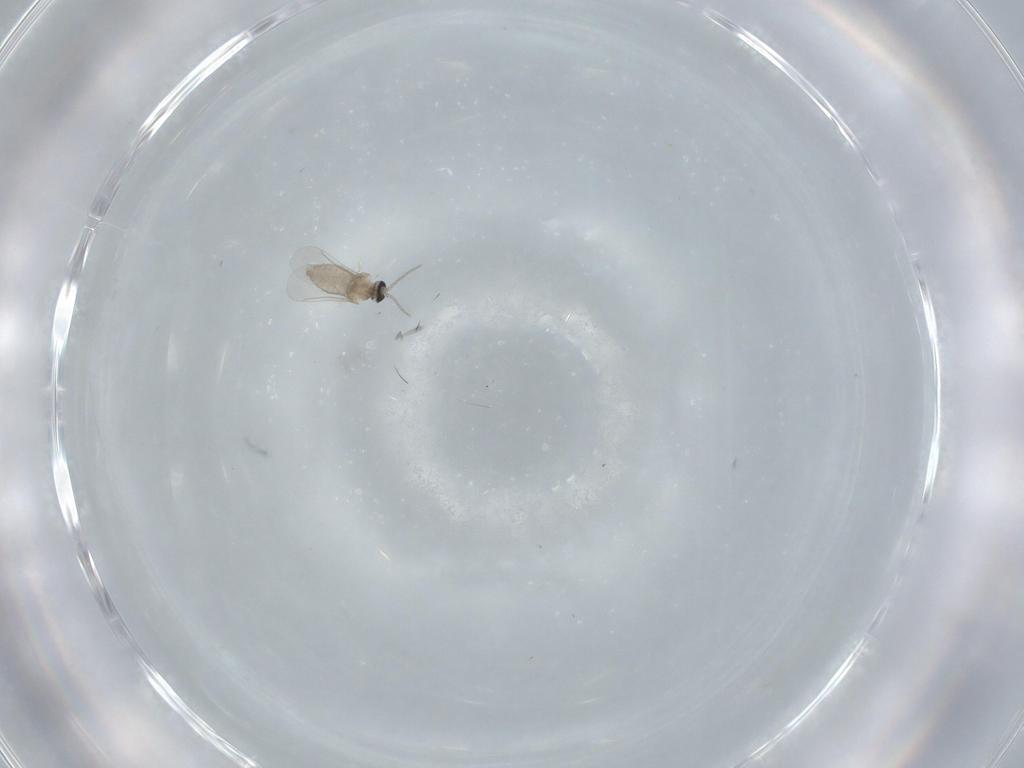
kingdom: Animalia
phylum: Arthropoda
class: Insecta
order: Diptera
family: Cecidomyiidae
